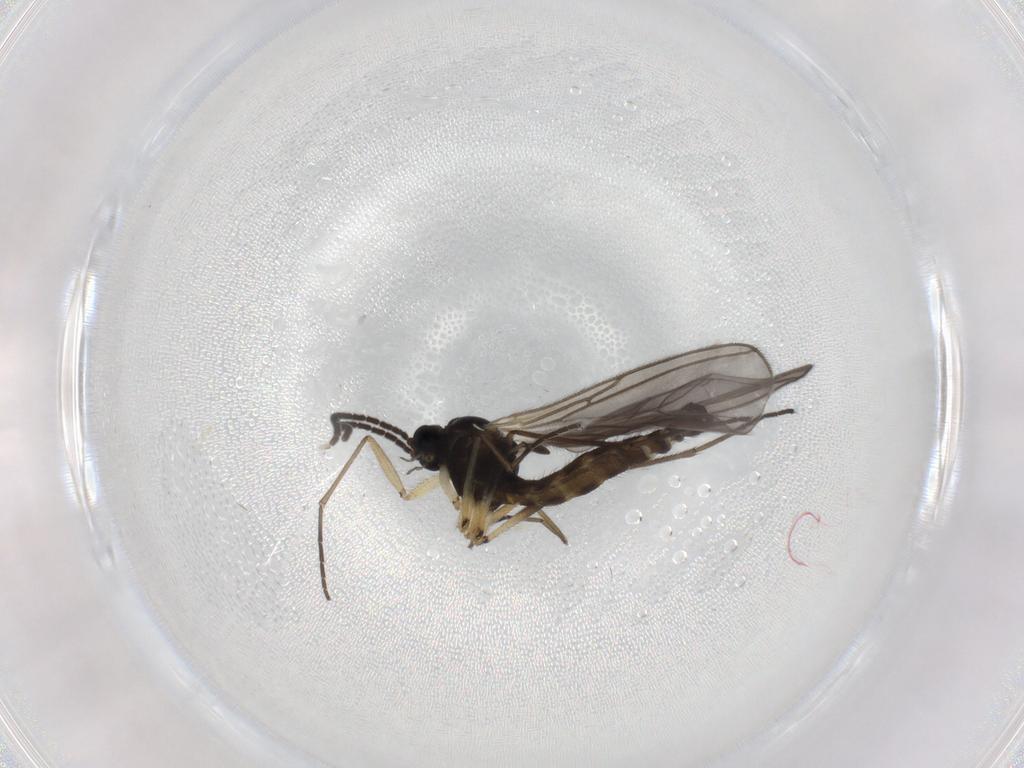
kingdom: Animalia
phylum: Arthropoda
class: Insecta
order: Diptera
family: Sciaridae
